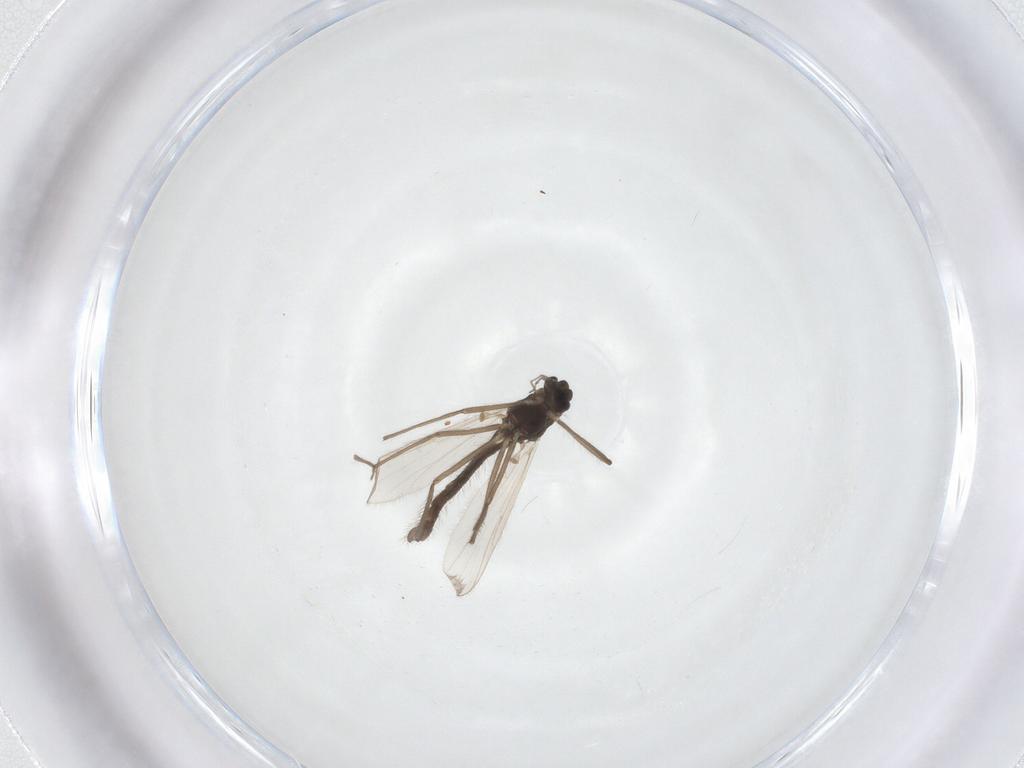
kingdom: Animalia
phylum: Arthropoda
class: Insecta
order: Diptera
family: Chironomidae
